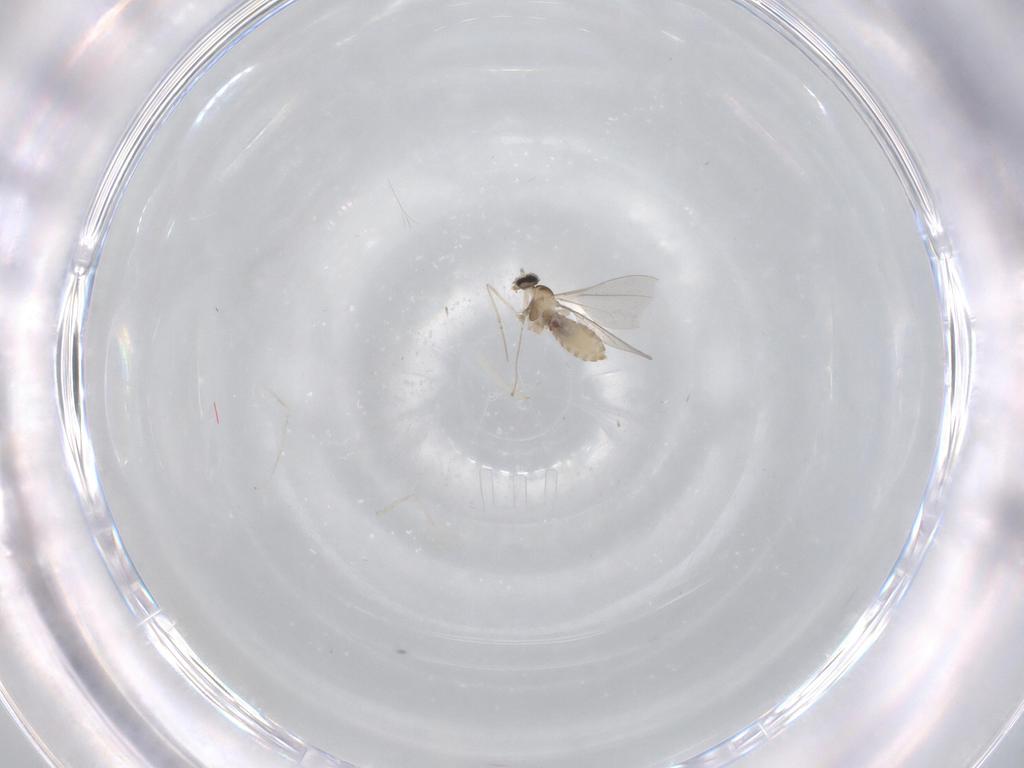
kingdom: Animalia
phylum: Arthropoda
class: Insecta
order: Diptera
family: Cecidomyiidae
